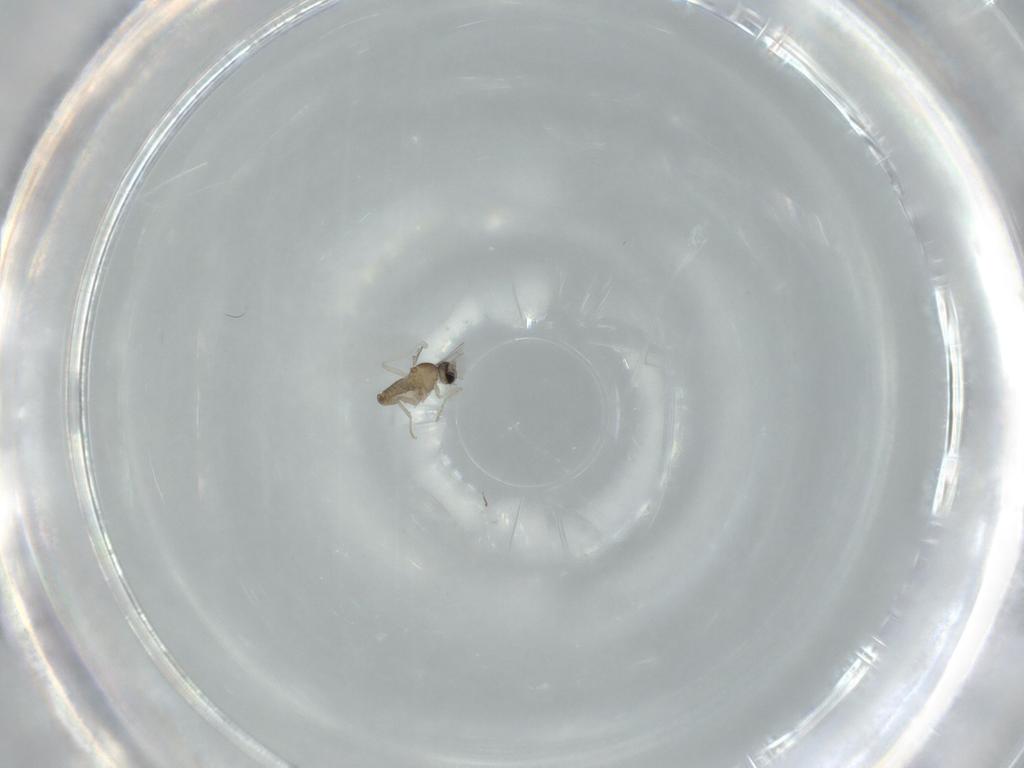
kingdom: Animalia
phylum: Arthropoda
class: Insecta
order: Diptera
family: Cecidomyiidae
